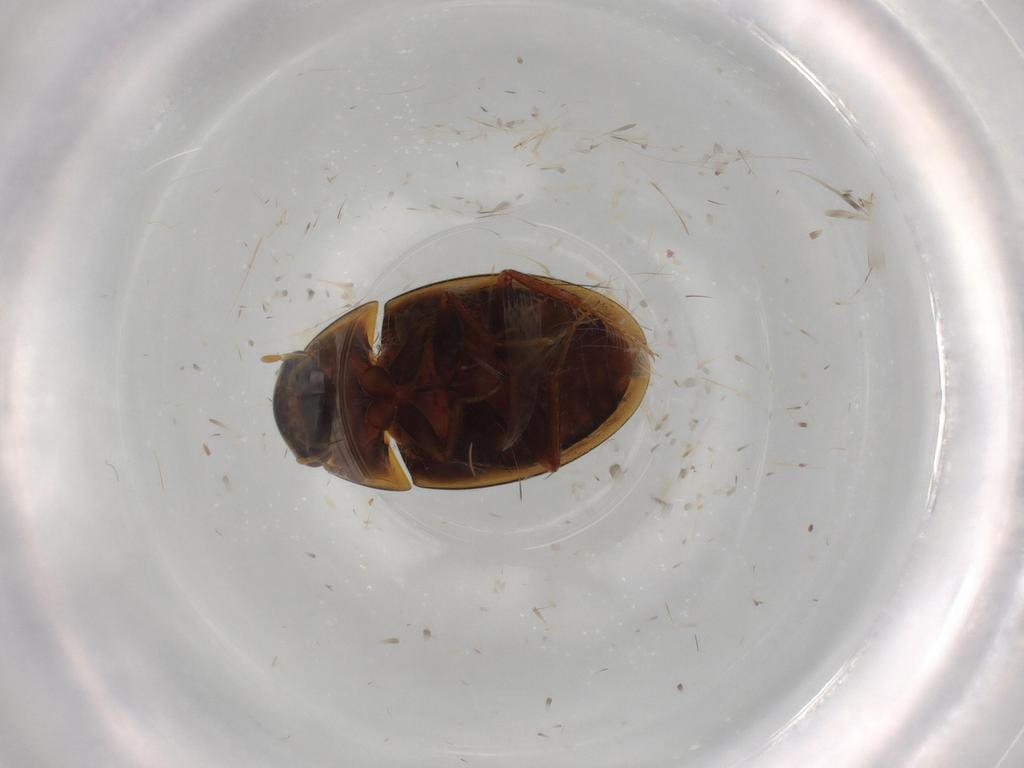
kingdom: Animalia
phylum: Arthropoda
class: Insecta
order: Coleoptera
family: Hydrophilidae
